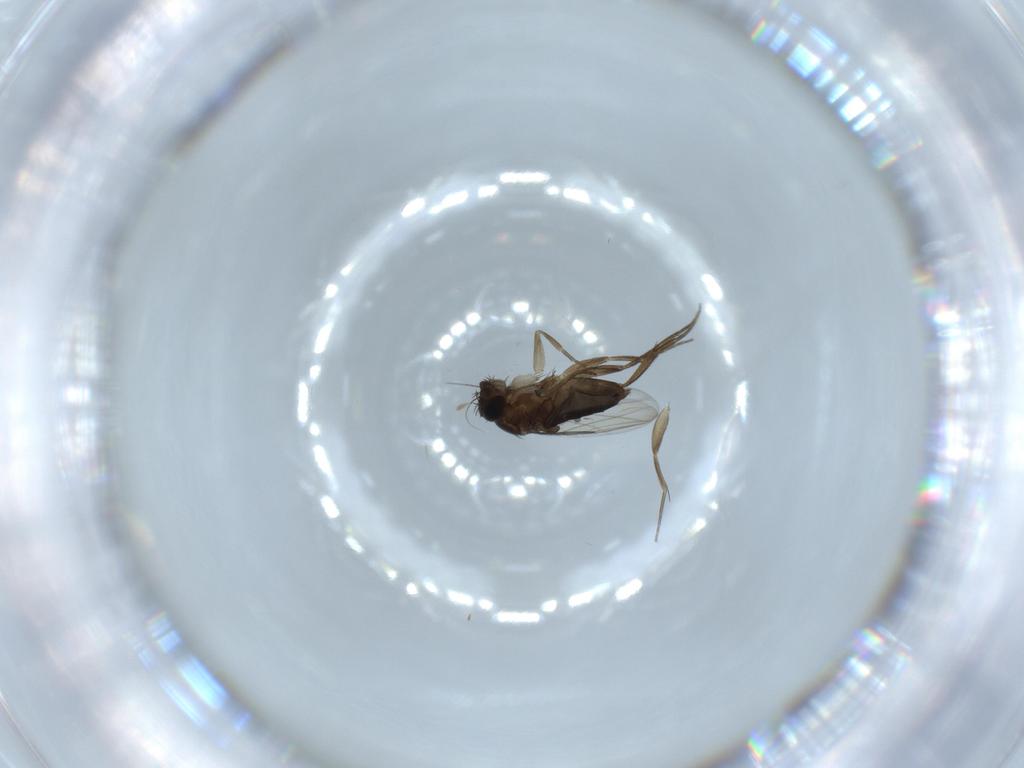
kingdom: Animalia
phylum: Arthropoda
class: Insecta
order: Diptera
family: Phoridae
